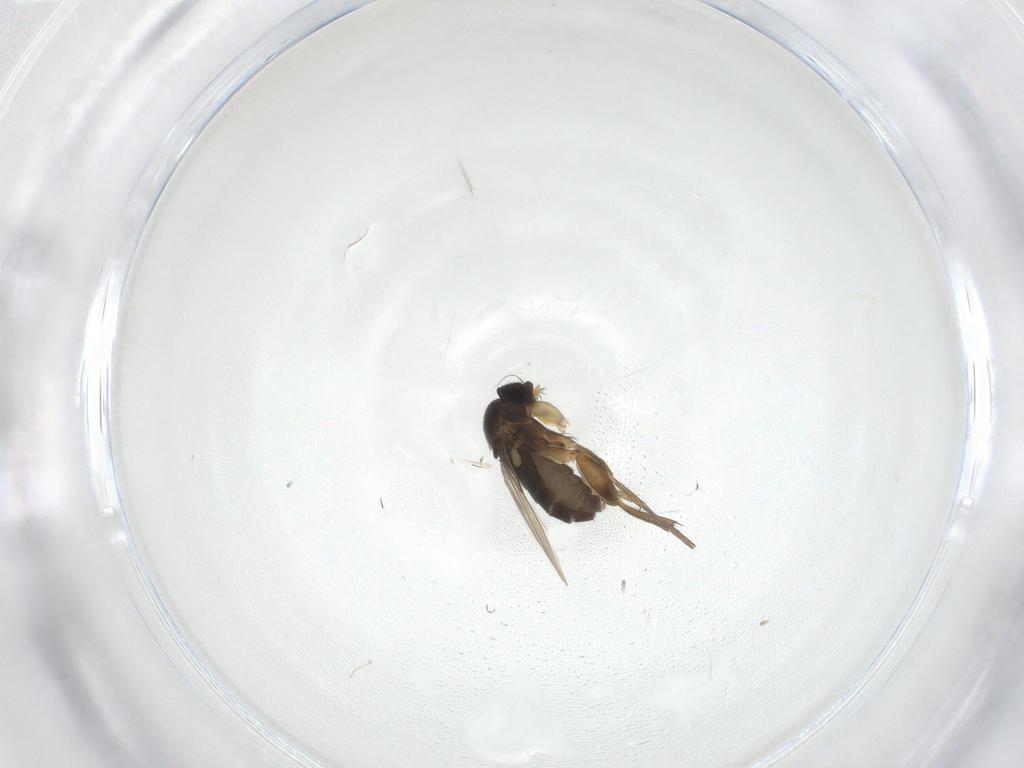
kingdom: Animalia
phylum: Arthropoda
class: Insecta
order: Diptera
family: Phoridae
